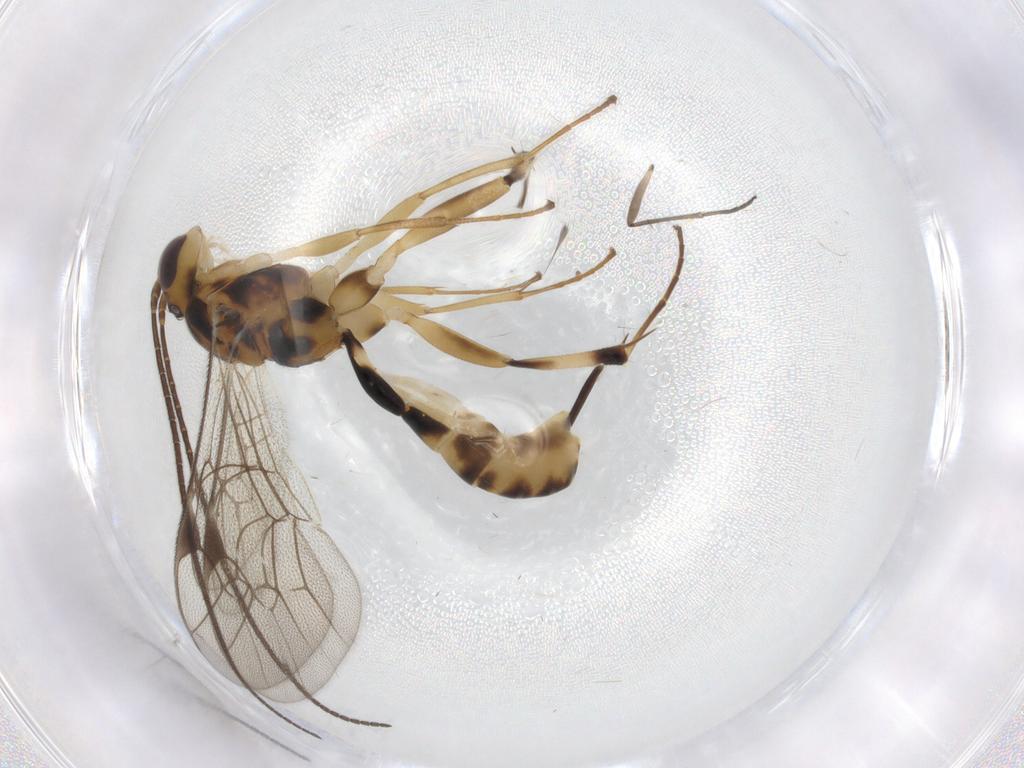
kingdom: Animalia
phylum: Arthropoda
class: Insecta
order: Hymenoptera
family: Ichneumonidae
